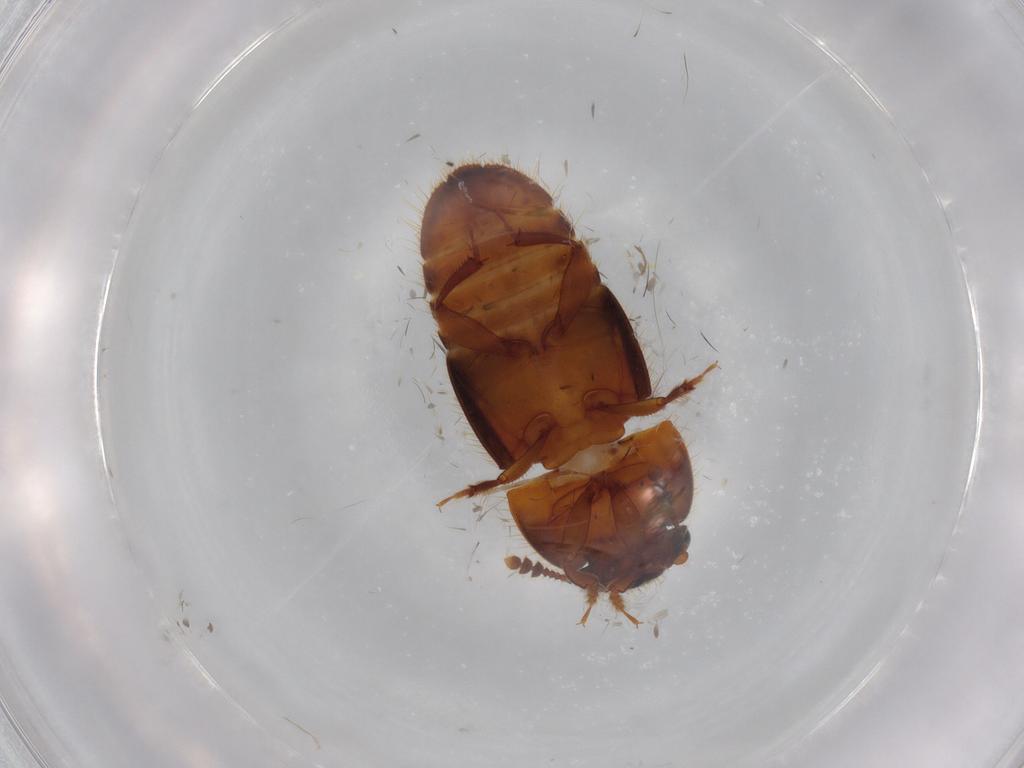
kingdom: Animalia
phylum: Arthropoda
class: Insecta
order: Coleoptera
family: Nitidulidae
